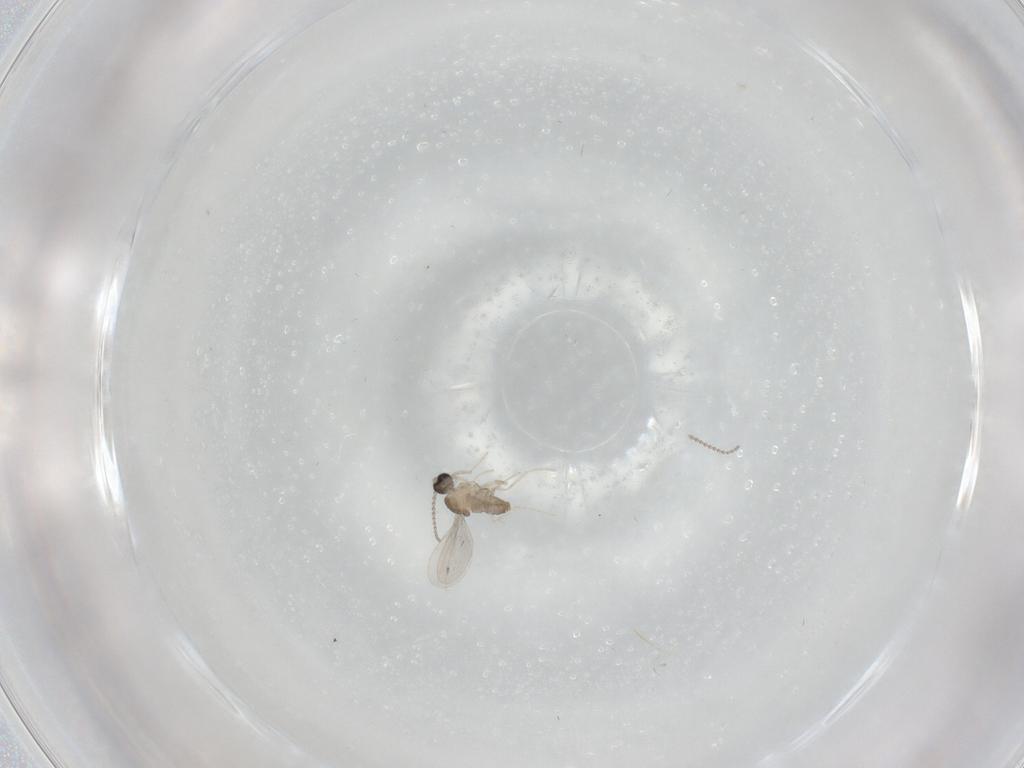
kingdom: Animalia
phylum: Arthropoda
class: Insecta
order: Diptera
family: Cecidomyiidae
